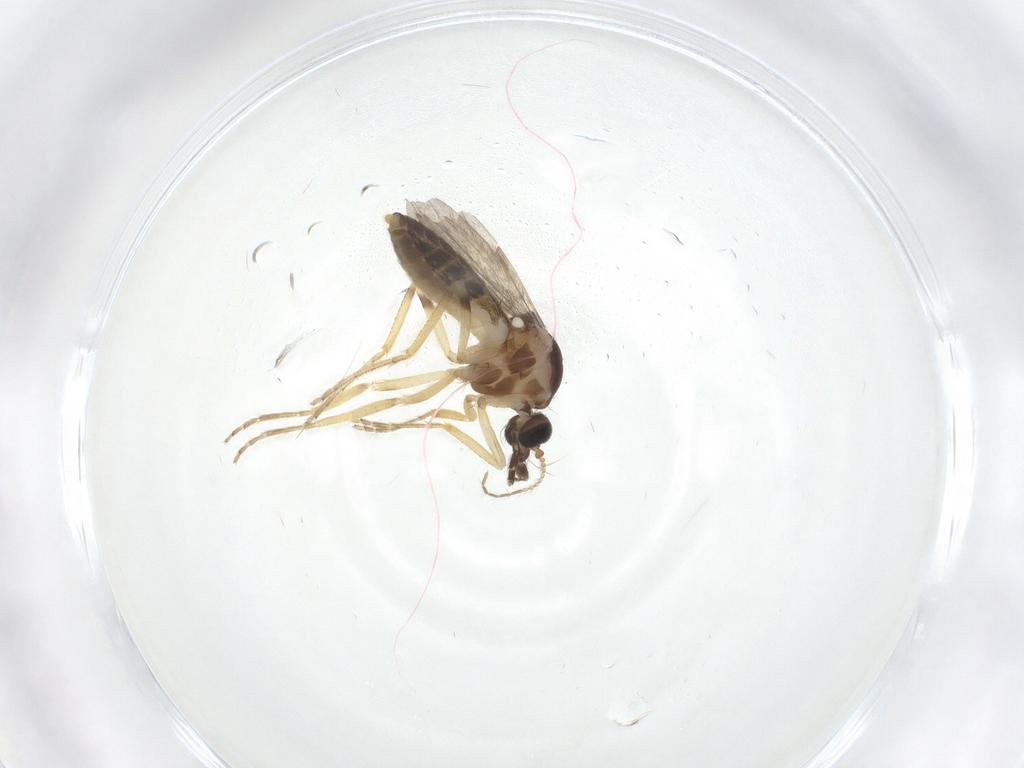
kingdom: Animalia
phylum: Arthropoda
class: Insecta
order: Diptera
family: Ceratopogonidae
